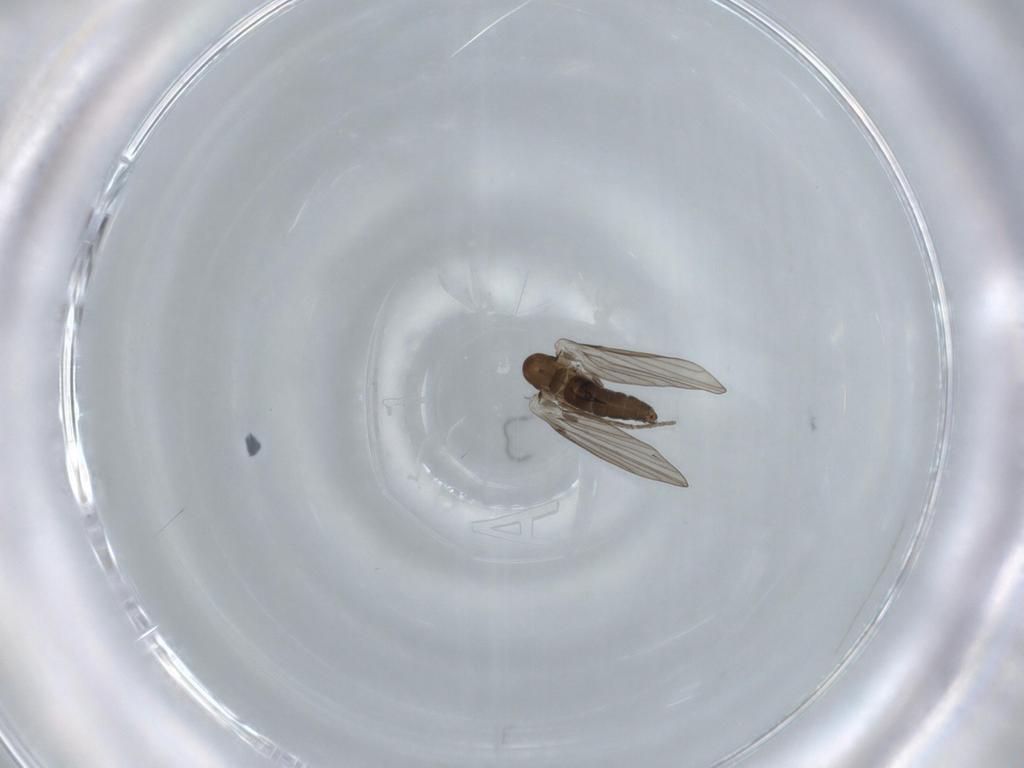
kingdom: Animalia
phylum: Arthropoda
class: Insecta
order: Diptera
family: Psychodidae
